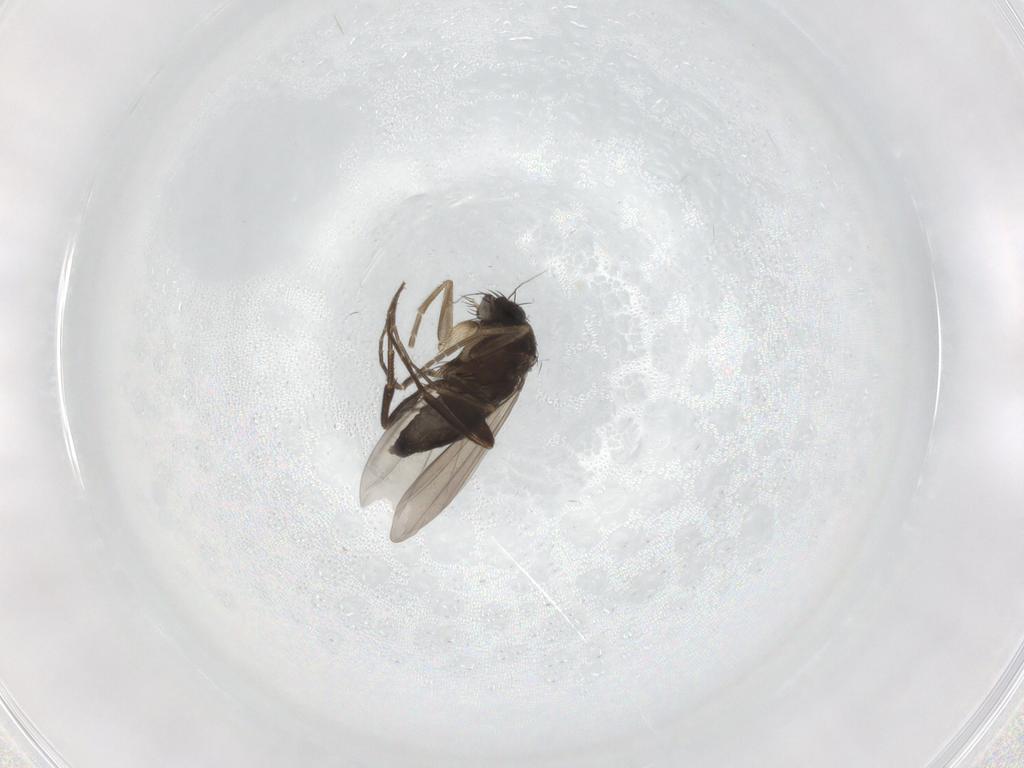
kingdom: Animalia
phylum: Arthropoda
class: Insecta
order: Diptera
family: Phoridae
